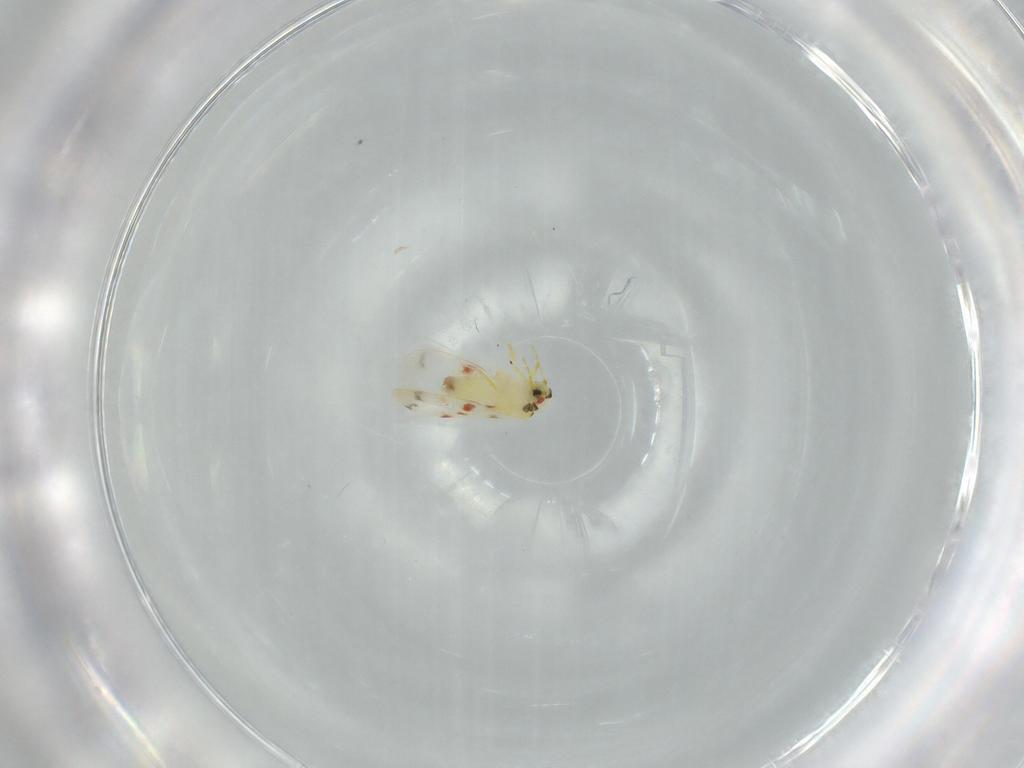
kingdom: Animalia
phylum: Arthropoda
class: Insecta
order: Hemiptera
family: Aleyrodidae
